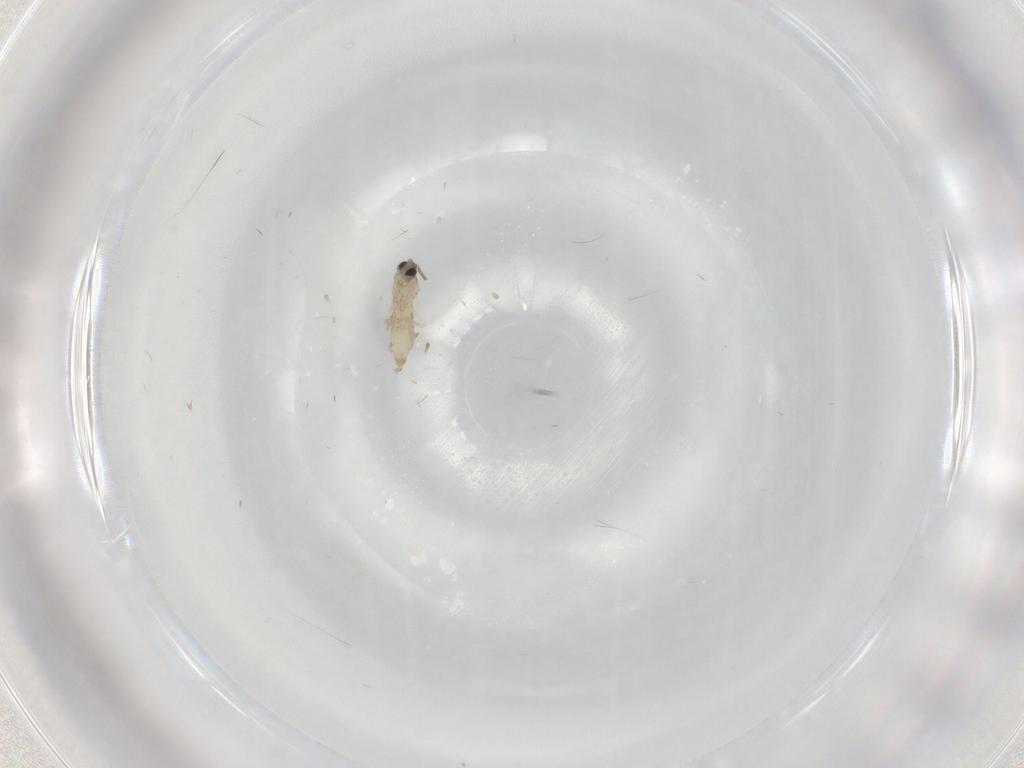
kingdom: Animalia
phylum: Arthropoda
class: Insecta
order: Diptera
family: Cecidomyiidae
